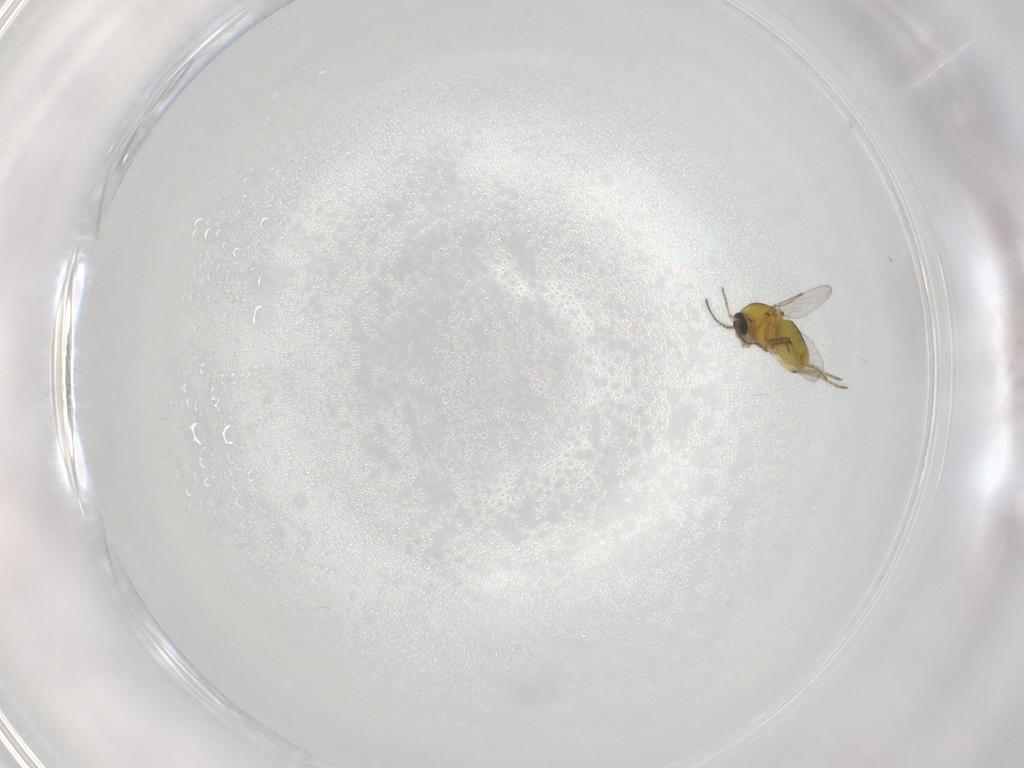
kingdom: Animalia
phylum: Arthropoda
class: Insecta
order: Diptera
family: Ceratopogonidae
